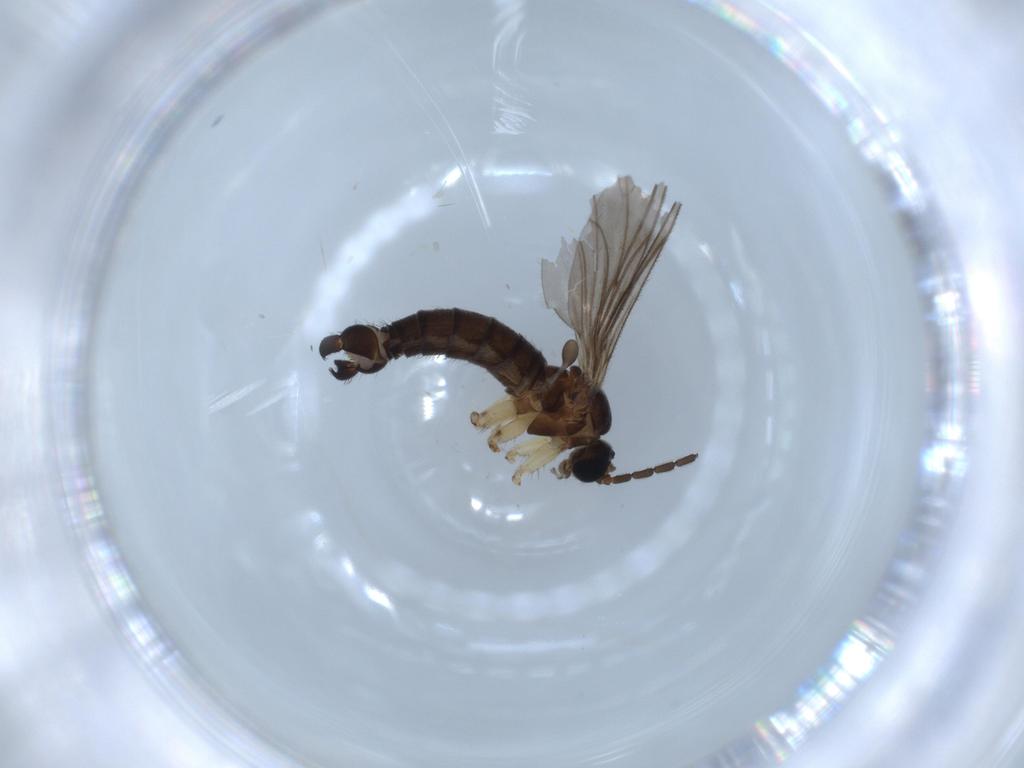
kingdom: Animalia
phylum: Arthropoda
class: Insecta
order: Diptera
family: Sciaridae
